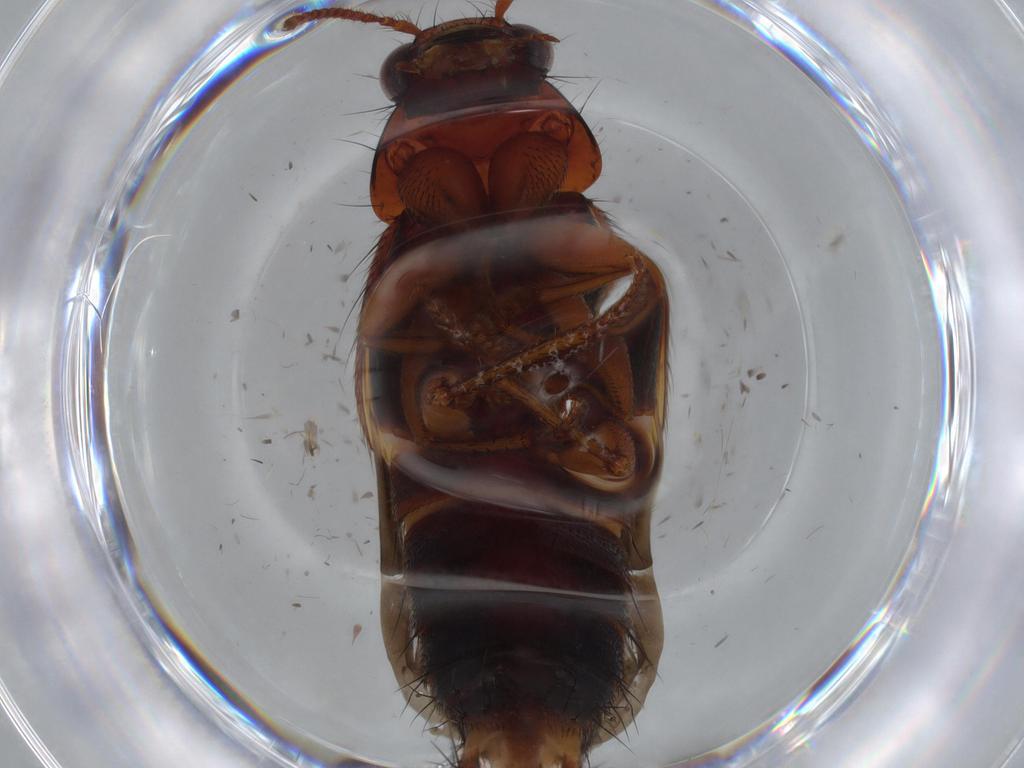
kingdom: Animalia
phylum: Arthropoda
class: Insecta
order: Coleoptera
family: Staphylinidae
